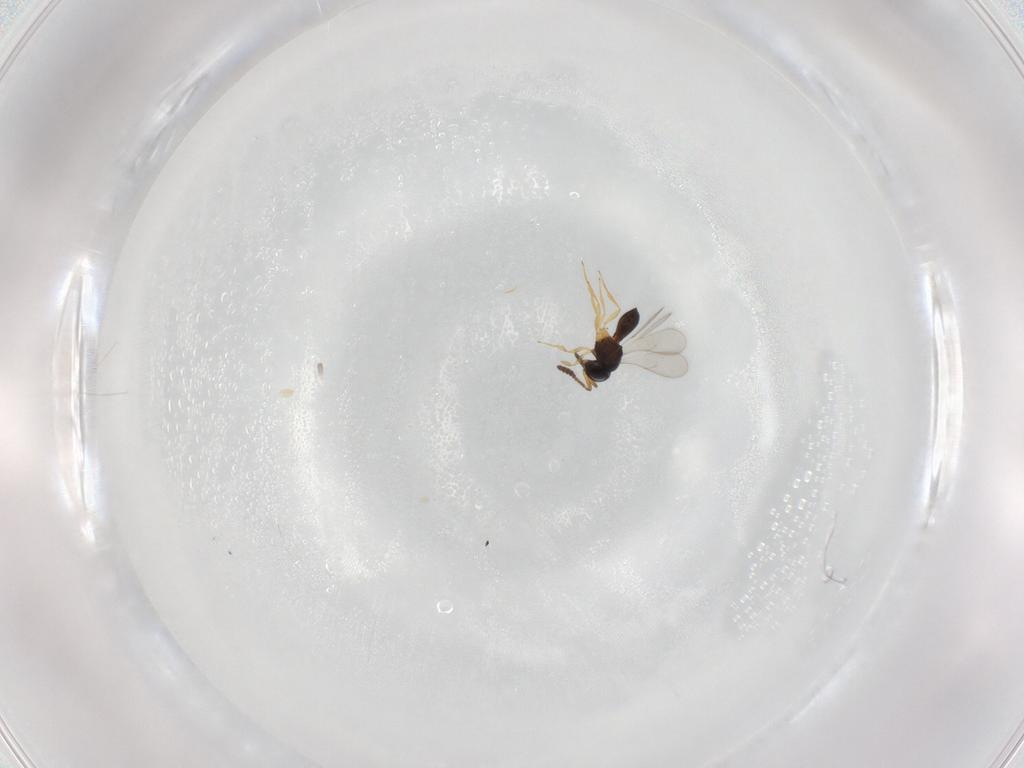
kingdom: Animalia
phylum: Arthropoda
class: Insecta
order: Hymenoptera
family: Scelionidae
